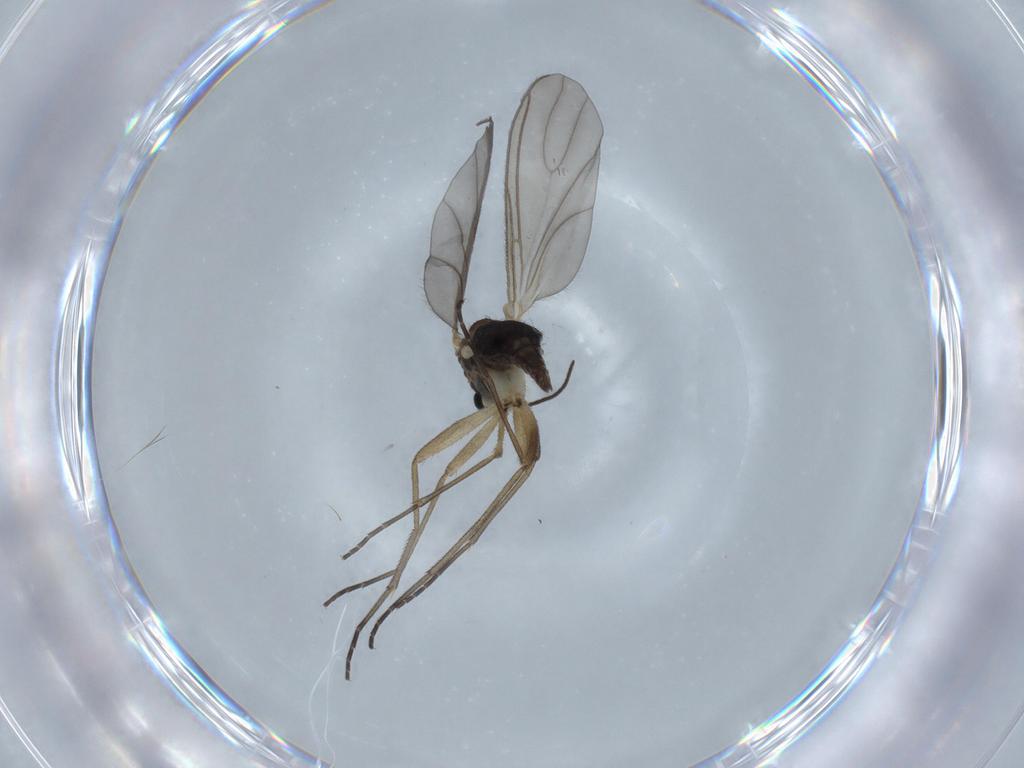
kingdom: Animalia
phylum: Arthropoda
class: Insecta
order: Diptera
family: Sciaridae
